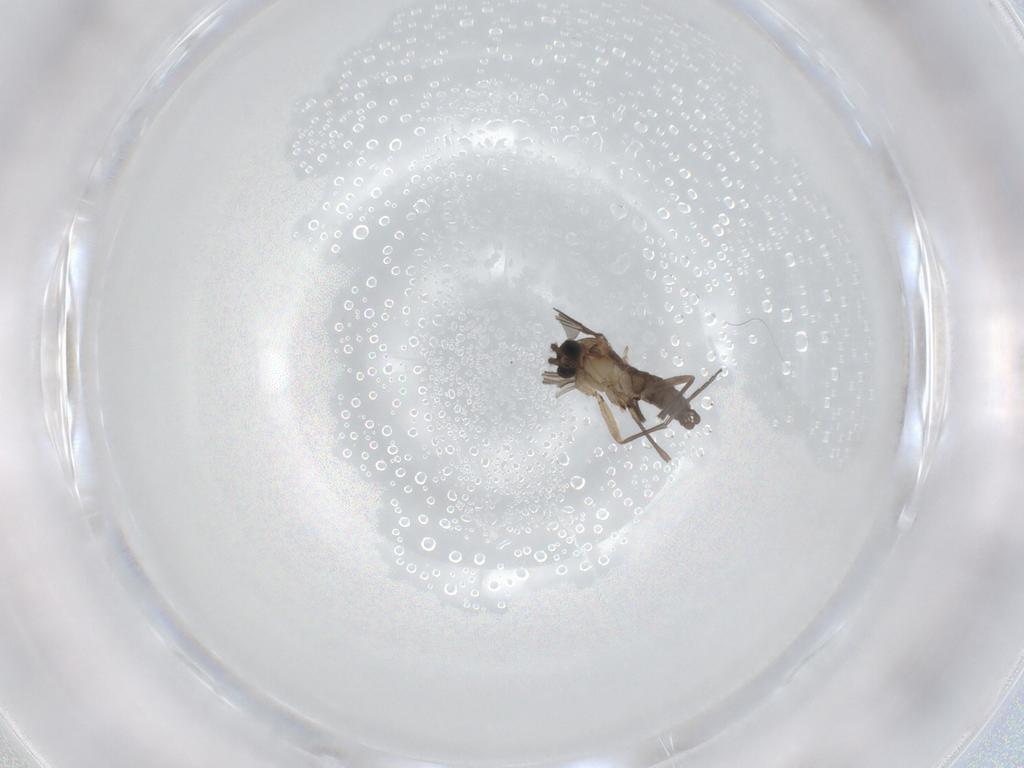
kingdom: Animalia
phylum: Arthropoda
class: Insecta
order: Diptera
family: Sciaridae
